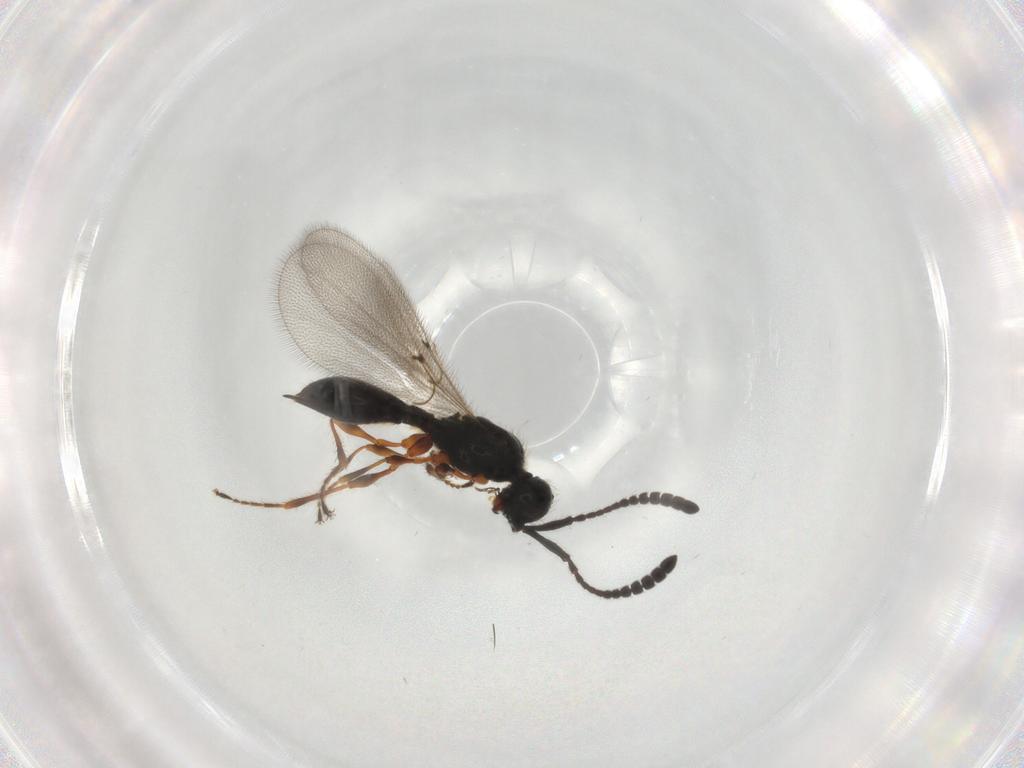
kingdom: Animalia
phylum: Arthropoda
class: Insecta
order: Hymenoptera
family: Diapriidae
